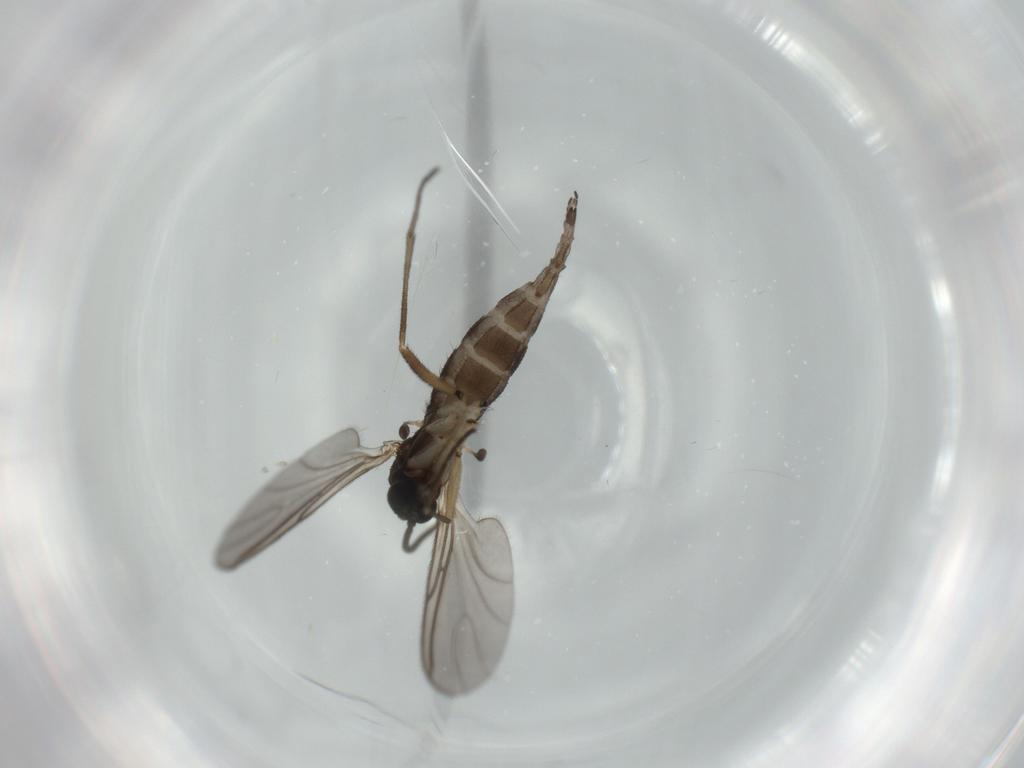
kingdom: Animalia
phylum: Arthropoda
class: Insecta
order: Diptera
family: Sciaridae
